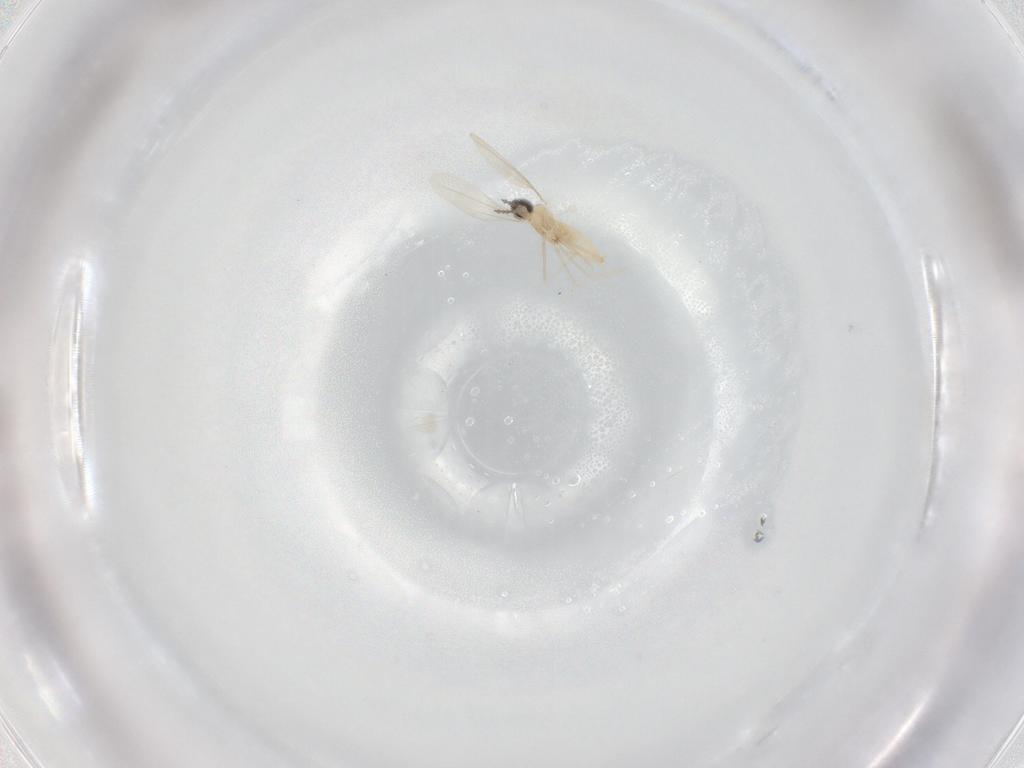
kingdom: Animalia
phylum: Arthropoda
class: Insecta
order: Diptera
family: Cecidomyiidae
